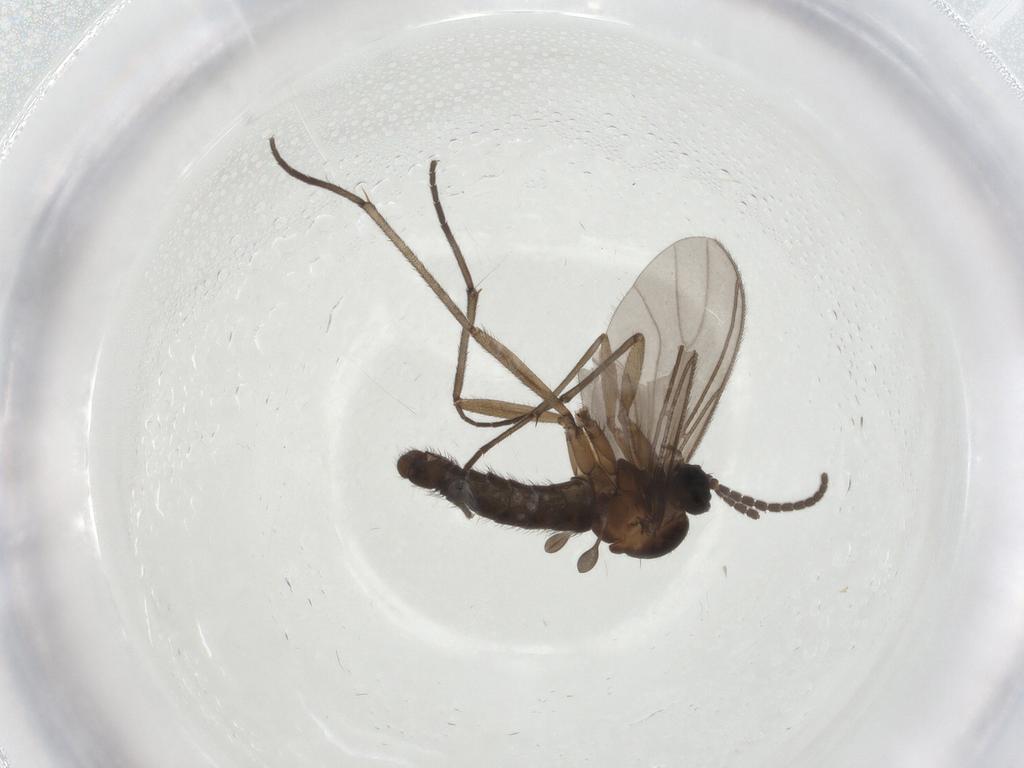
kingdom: Animalia
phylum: Arthropoda
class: Insecta
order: Diptera
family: Sciaridae
